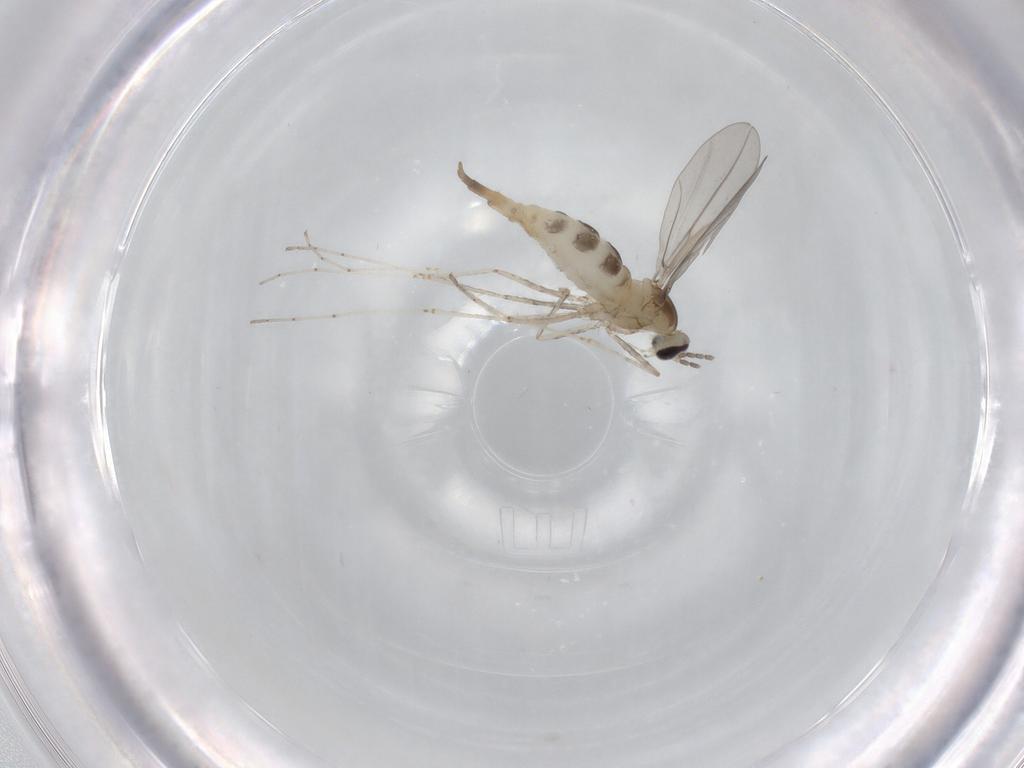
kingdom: Animalia
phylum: Arthropoda
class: Insecta
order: Diptera
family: Cecidomyiidae
